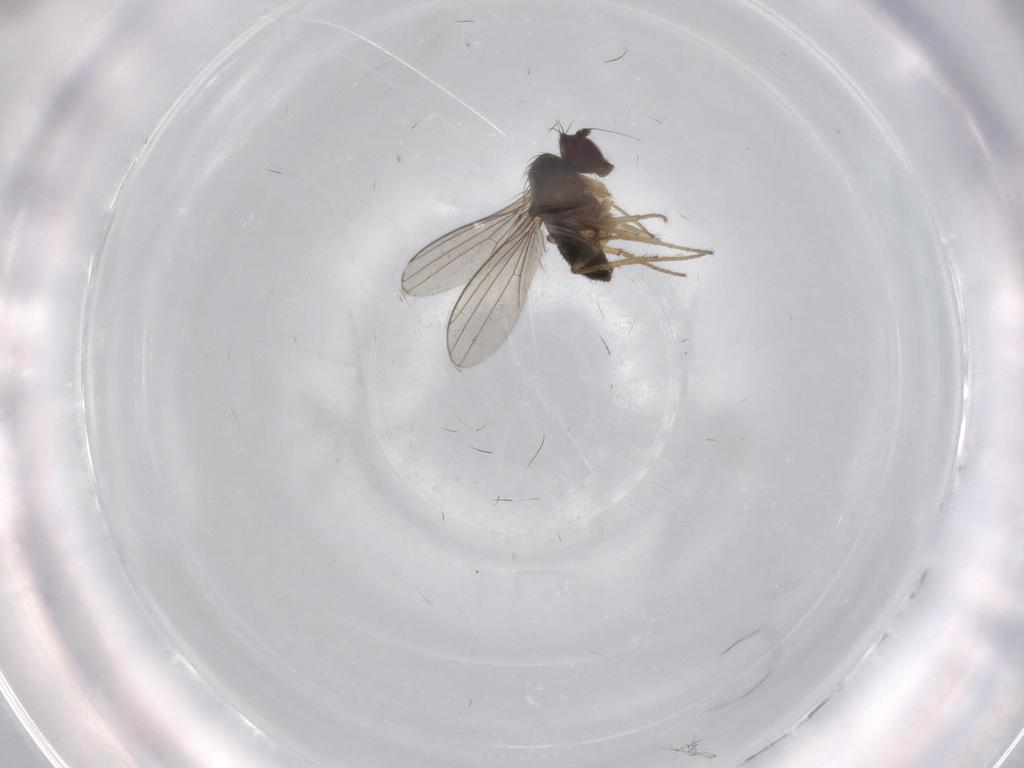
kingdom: Animalia
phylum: Arthropoda
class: Insecta
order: Diptera
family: Dolichopodidae
